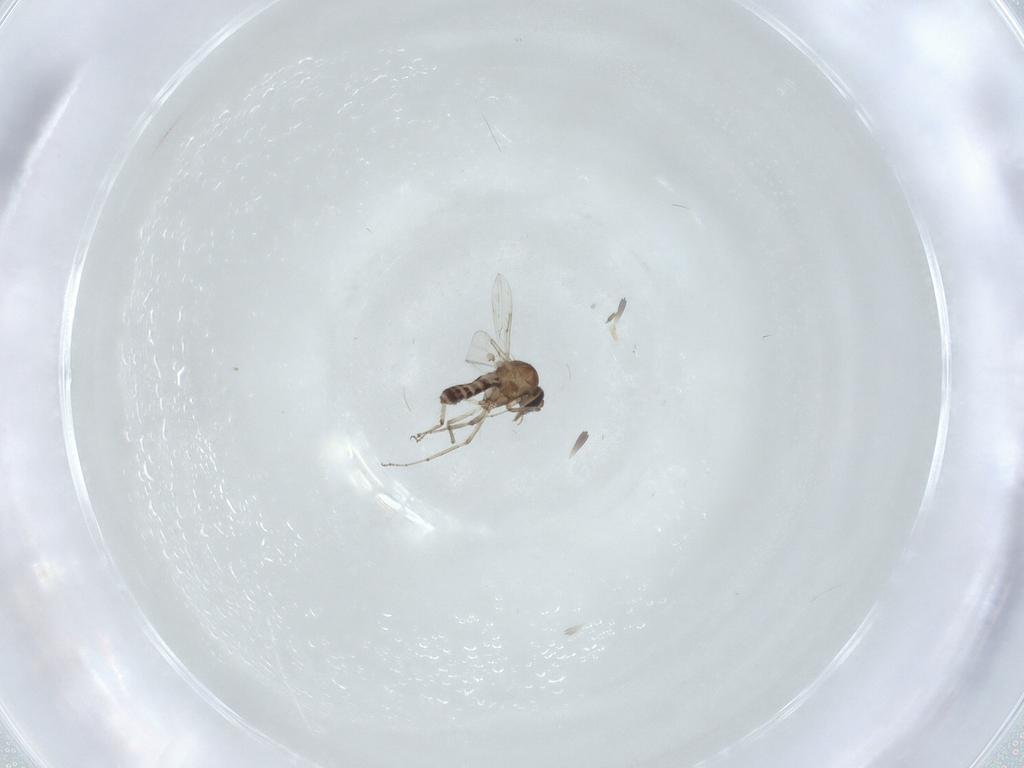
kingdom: Animalia
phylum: Arthropoda
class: Insecta
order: Diptera
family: Ceratopogonidae
